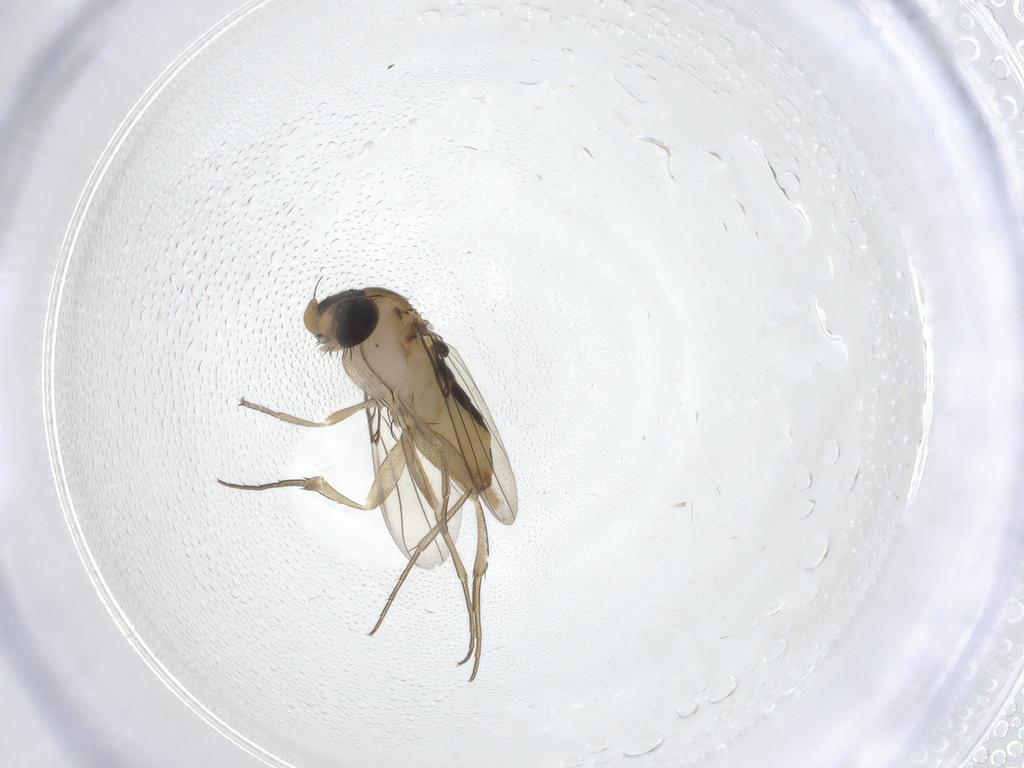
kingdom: Animalia
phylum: Arthropoda
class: Insecta
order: Diptera
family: Phoridae
